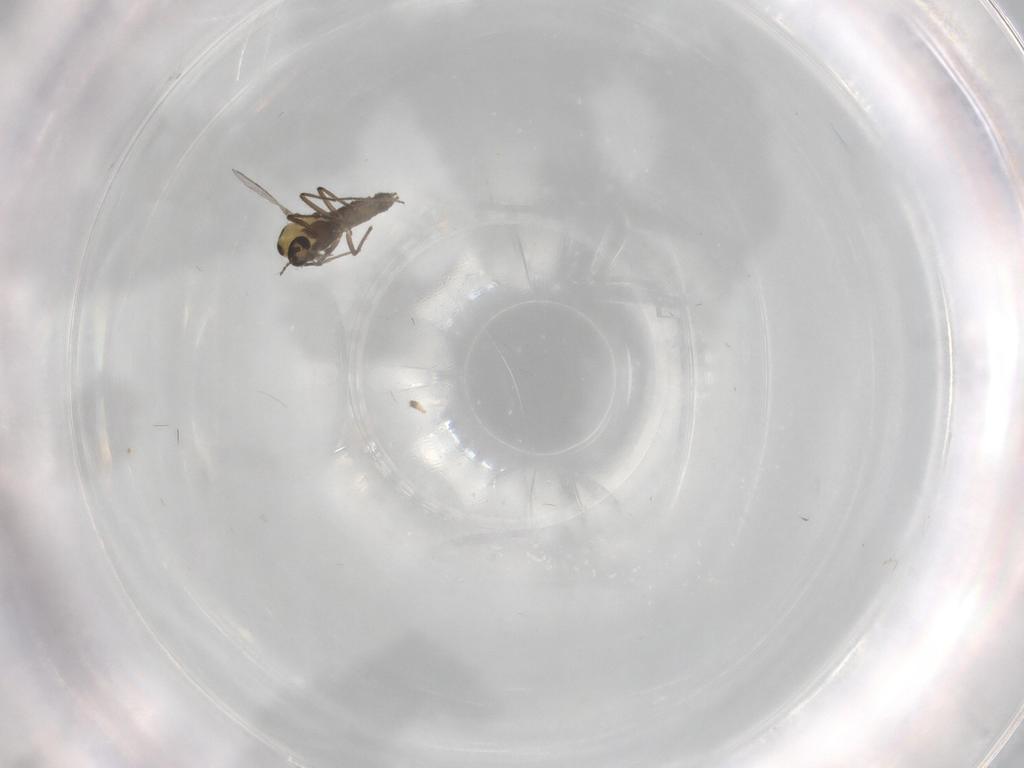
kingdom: Animalia
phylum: Arthropoda
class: Insecta
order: Diptera
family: Chironomidae
